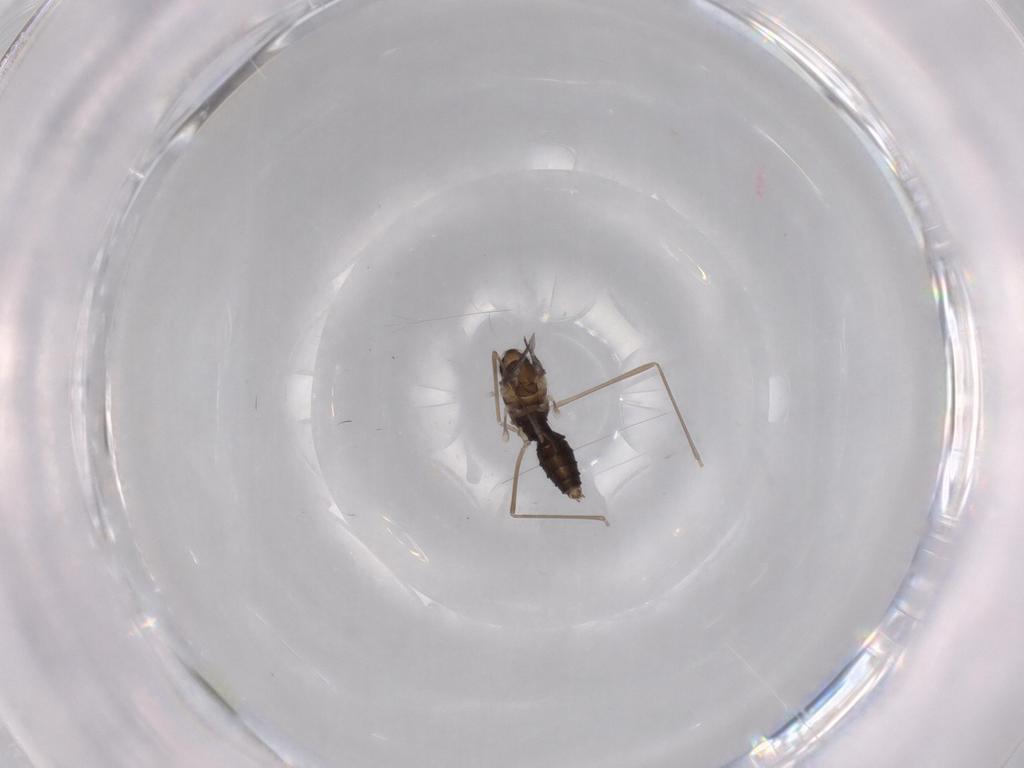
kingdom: Animalia
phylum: Arthropoda
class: Insecta
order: Diptera
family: Cecidomyiidae
